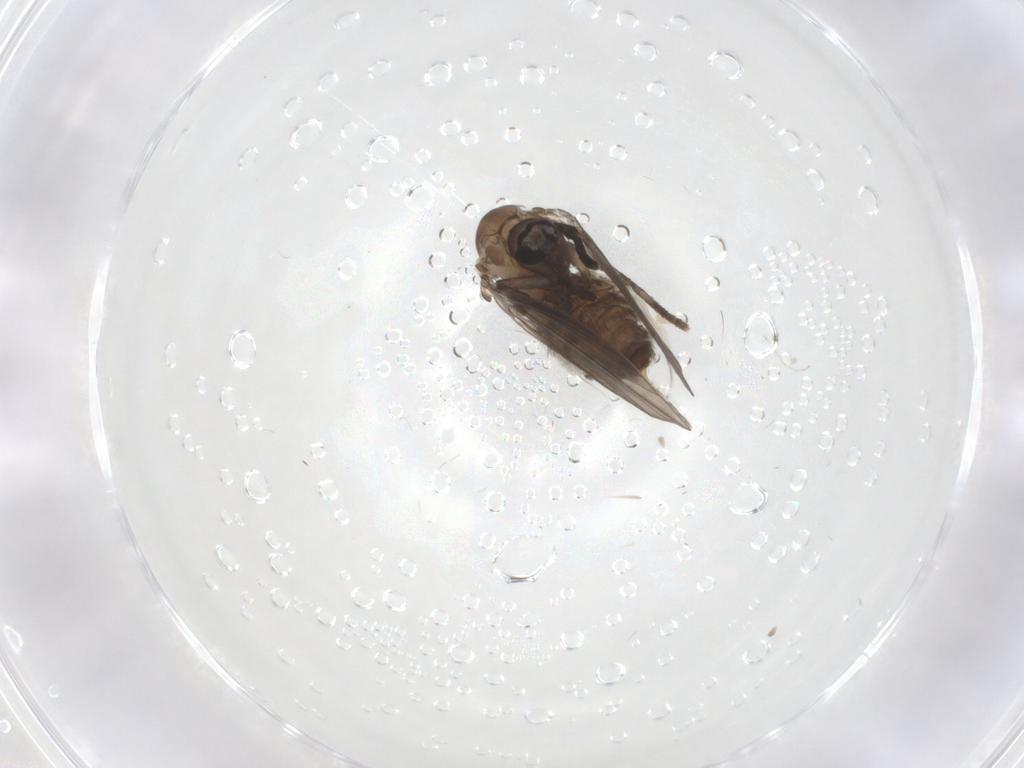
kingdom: Animalia
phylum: Arthropoda
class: Insecta
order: Diptera
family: Psychodidae
